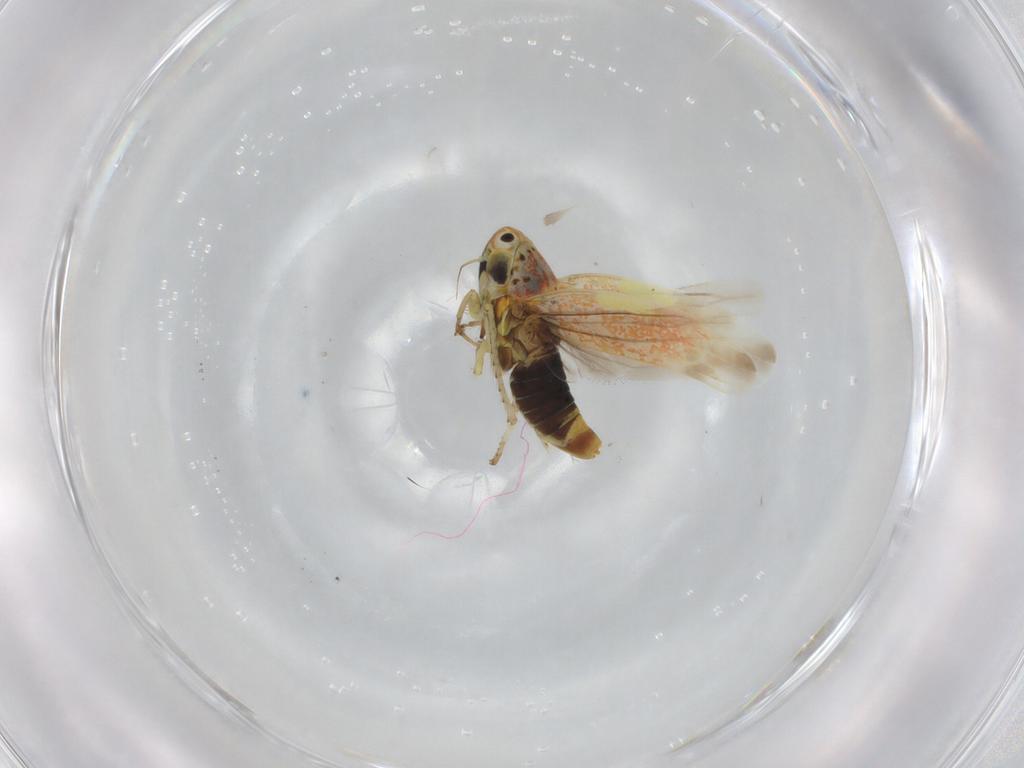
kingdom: Animalia
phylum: Arthropoda
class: Insecta
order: Hemiptera
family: Cicadellidae
